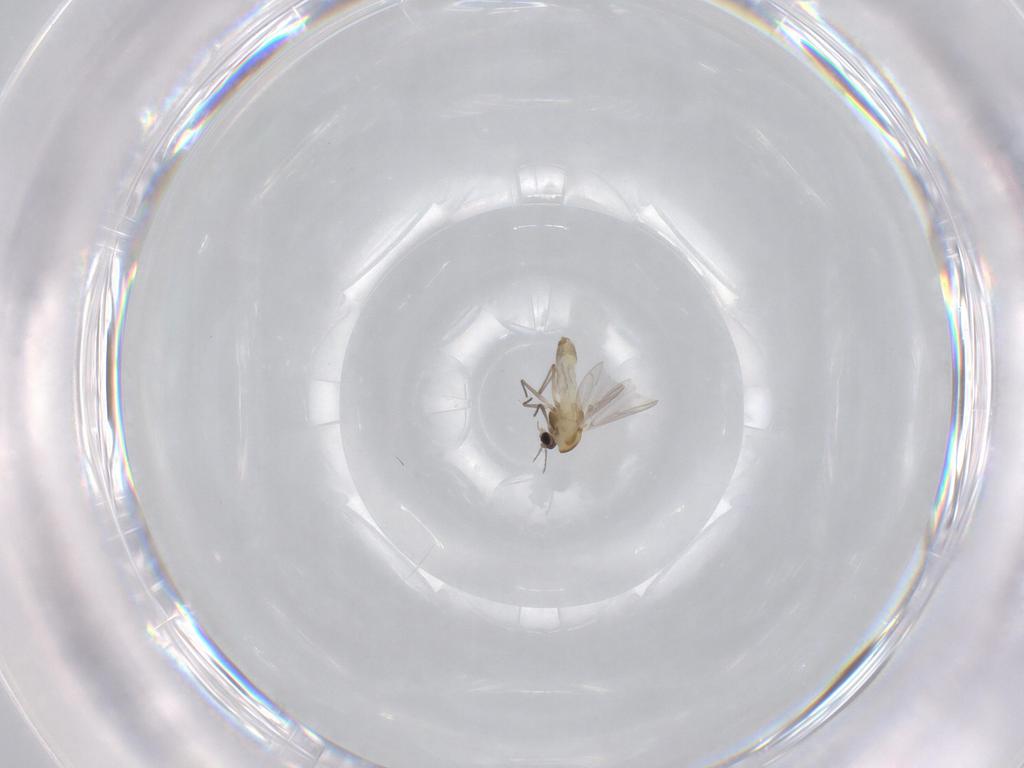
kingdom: Animalia
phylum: Arthropoda
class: Insecta
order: Diptera
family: Chironomidae
